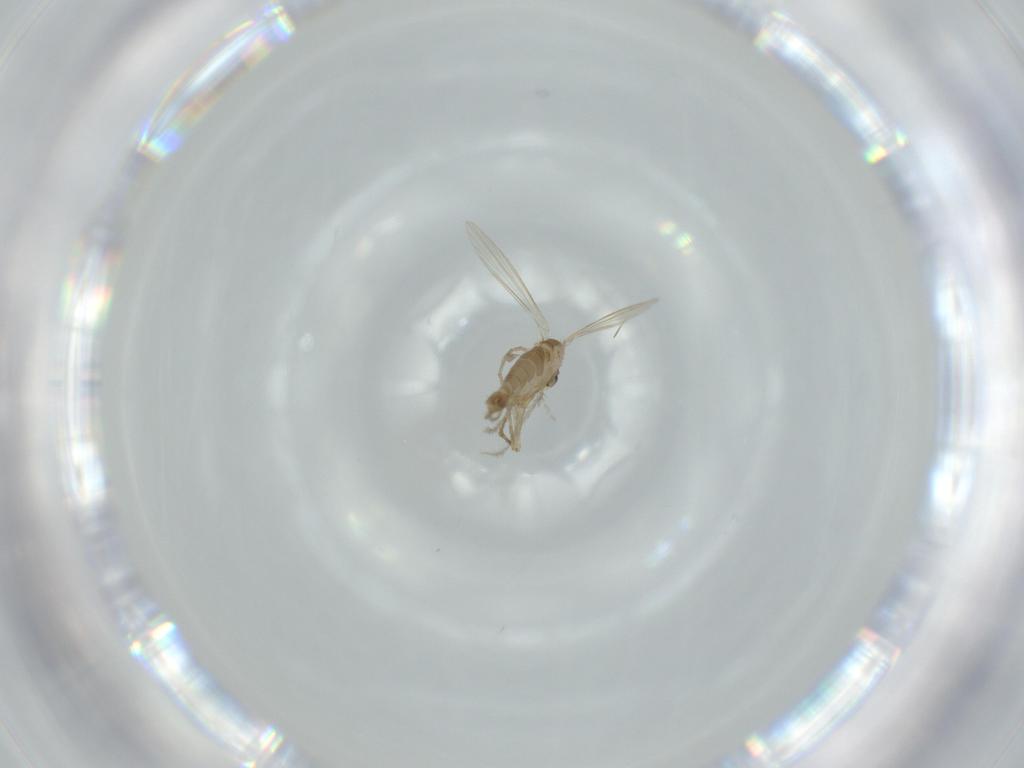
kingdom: Animalia
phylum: Arthropoda
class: Insecta
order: Diptera
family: Psychodidae
